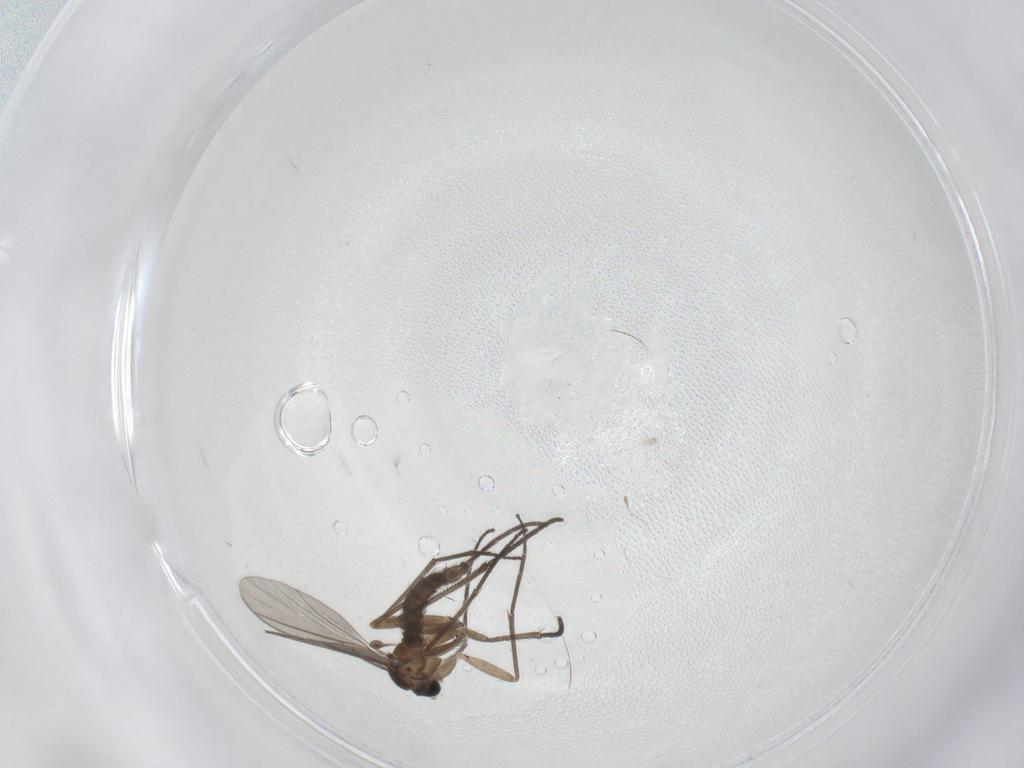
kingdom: Animalia
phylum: Arthropoda
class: Insecta
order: Diptera
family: Sciaridae
